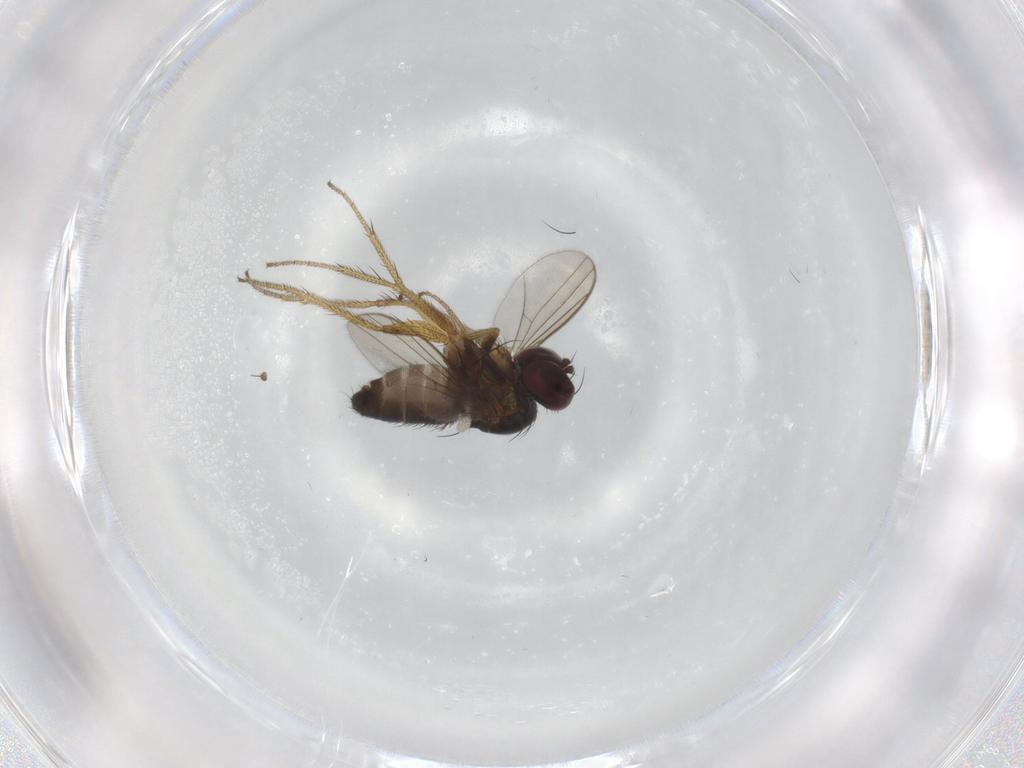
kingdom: Animalia
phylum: Arthropoda
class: Insecta
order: Diptera
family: Dolichopodidae
